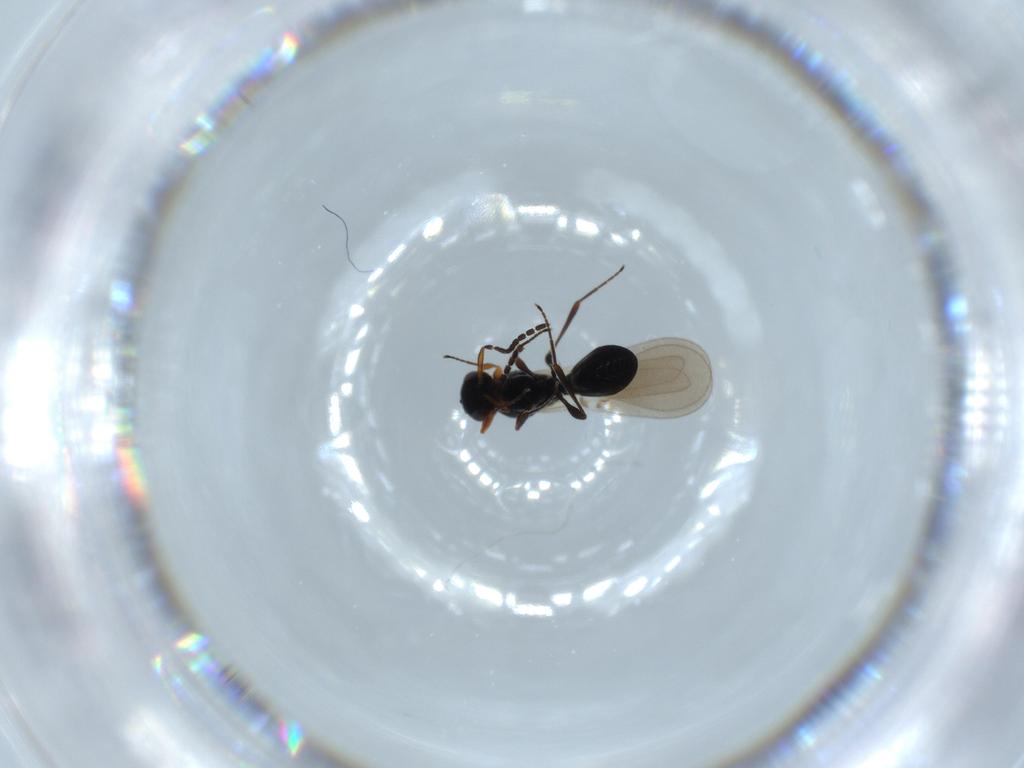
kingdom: Animalia
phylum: Arthropoda
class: Insecta
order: Hymenoptera
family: Platygastridae
